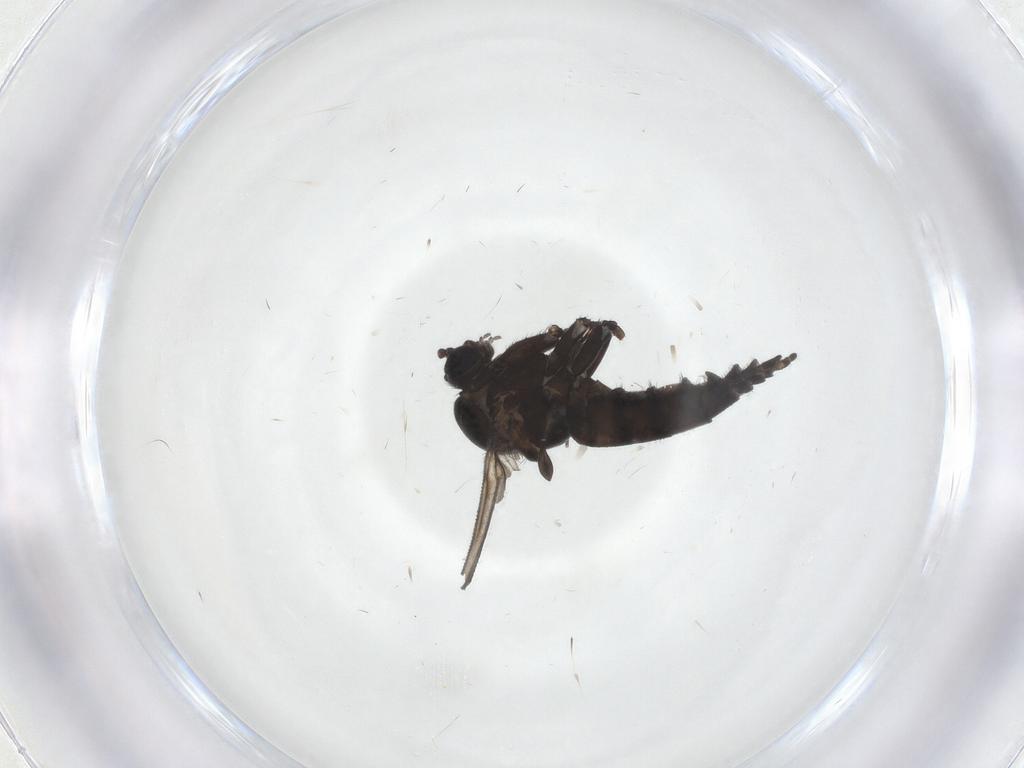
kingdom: Animalia
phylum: Arthropoda
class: Insecta
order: Diptera
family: Sciaridae
